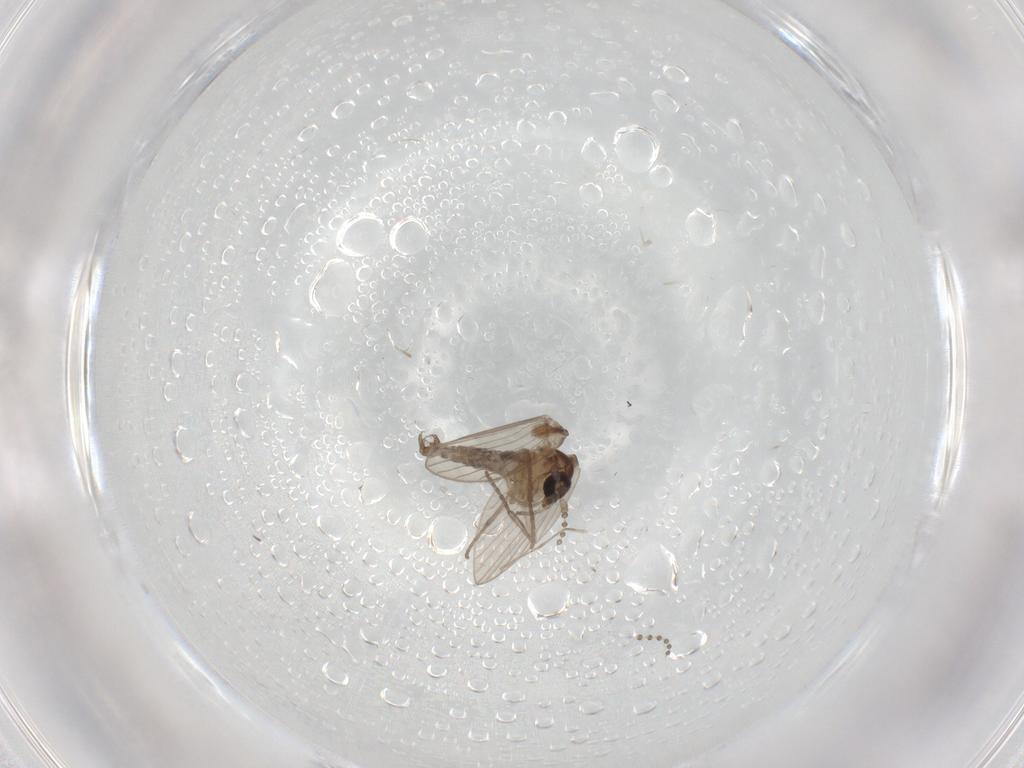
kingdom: Animalia
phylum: Arthropoda
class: Insecta
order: Diptera
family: Psychodidae
